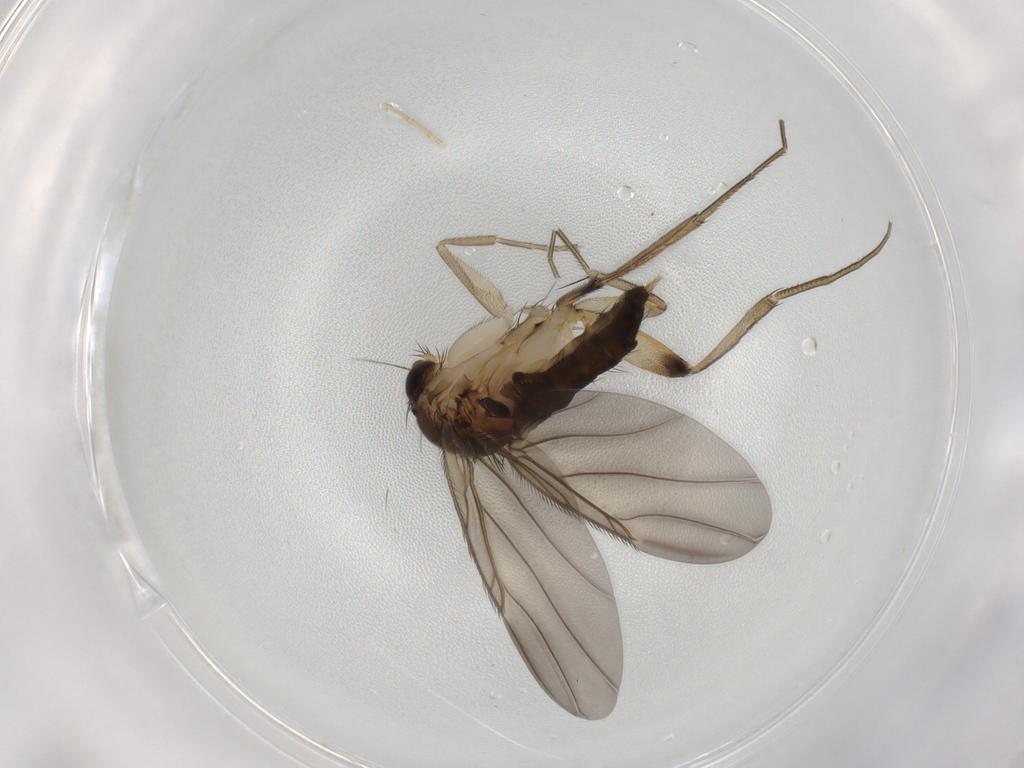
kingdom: Animalia
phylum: Arthropoda
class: Insecta
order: Diptera
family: Phoridae
